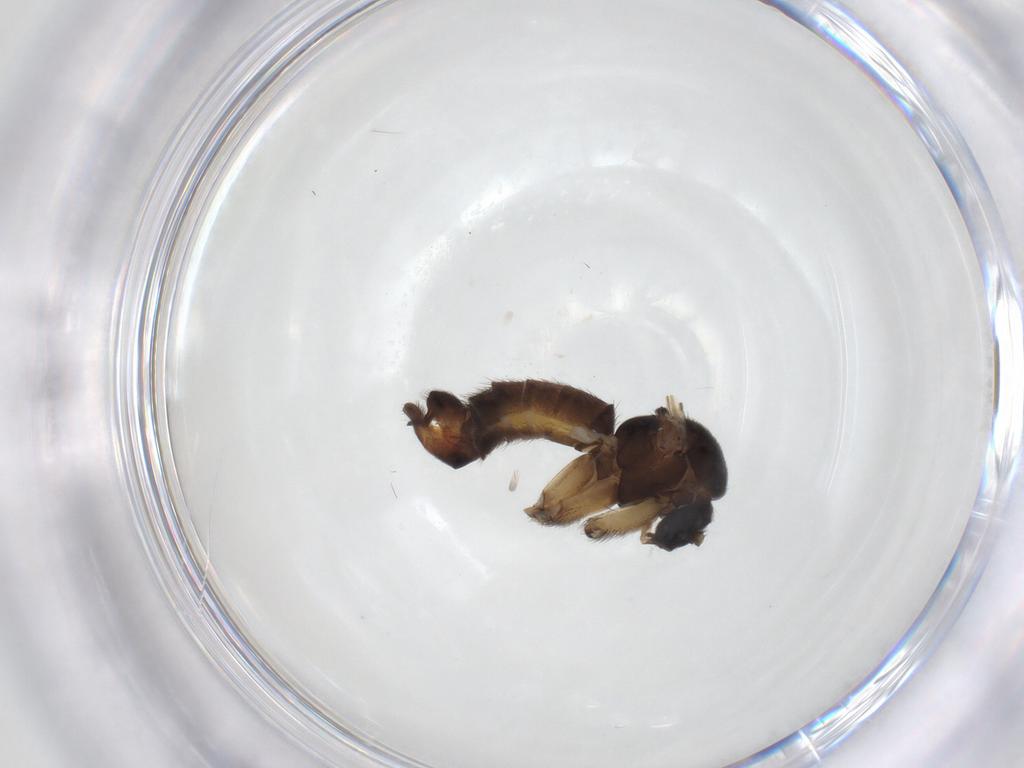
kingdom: Animalia
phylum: Arthropoda
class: Insecta
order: Diptera
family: Mycetophilidae
